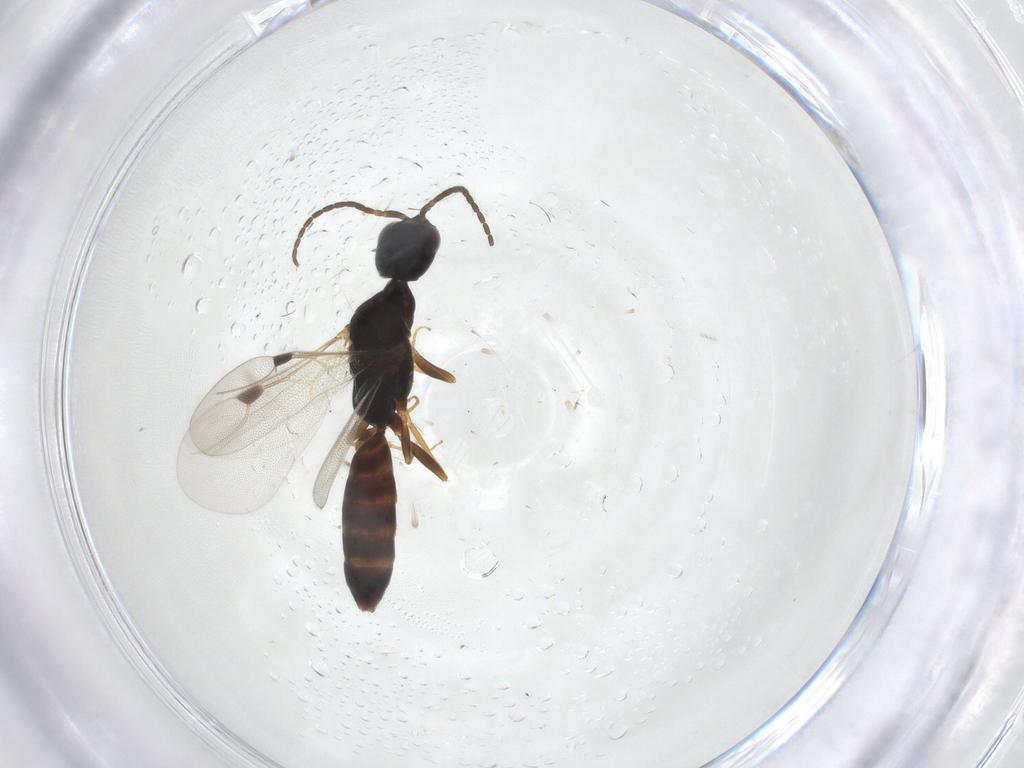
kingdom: Animalia
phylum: Arthropoda
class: Insecta
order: Hymenoptera
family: Bethylidae
